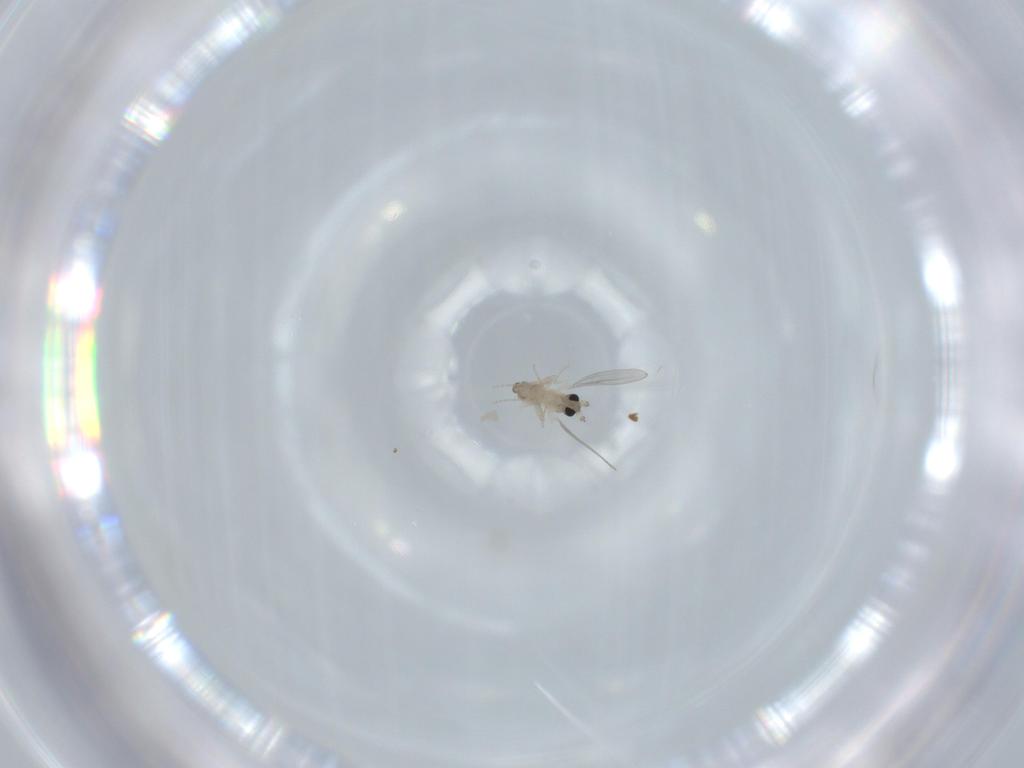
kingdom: Animalia
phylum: Arthropoda
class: Insecta
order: Diptera
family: Cecidomyiidae
